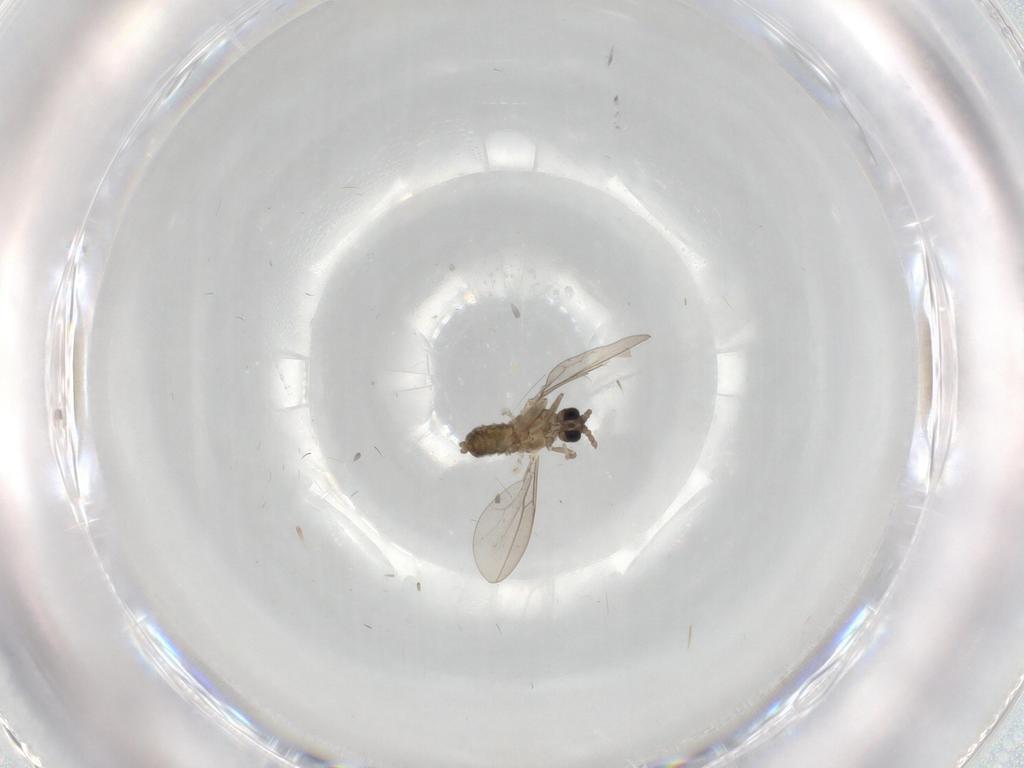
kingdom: Animalia
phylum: Arthropoda
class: Insecta
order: Diptera
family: Cecidomyiidae
